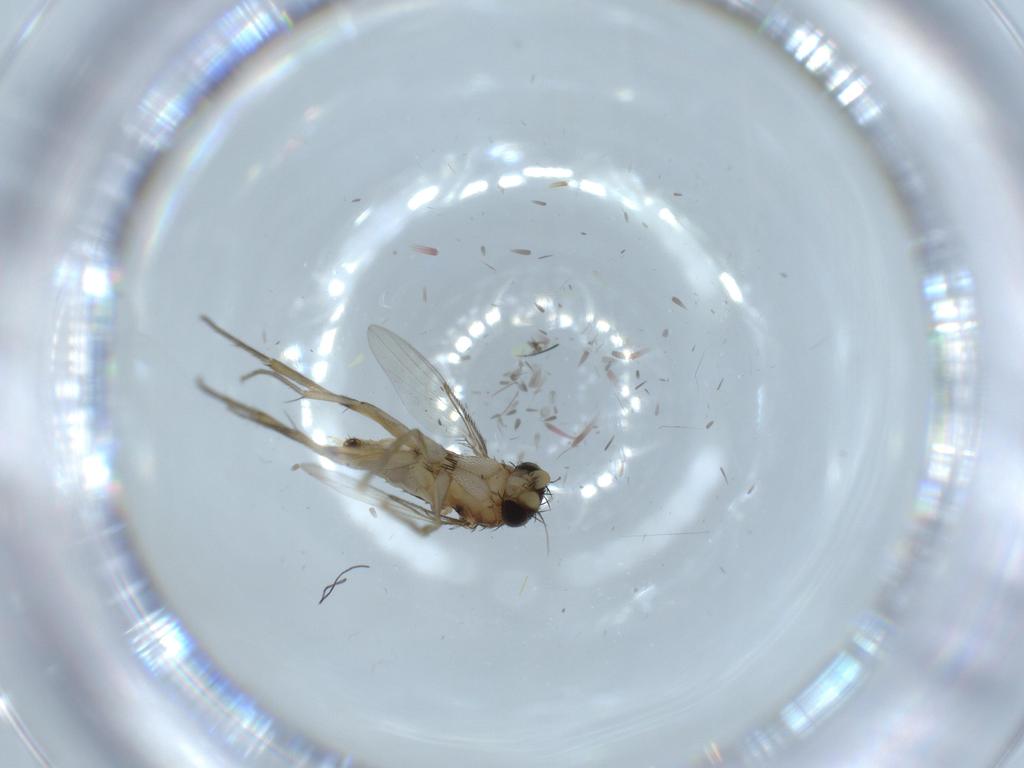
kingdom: Animalia
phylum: Arthropoda
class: Insecta
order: Diptera
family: Phoridae
